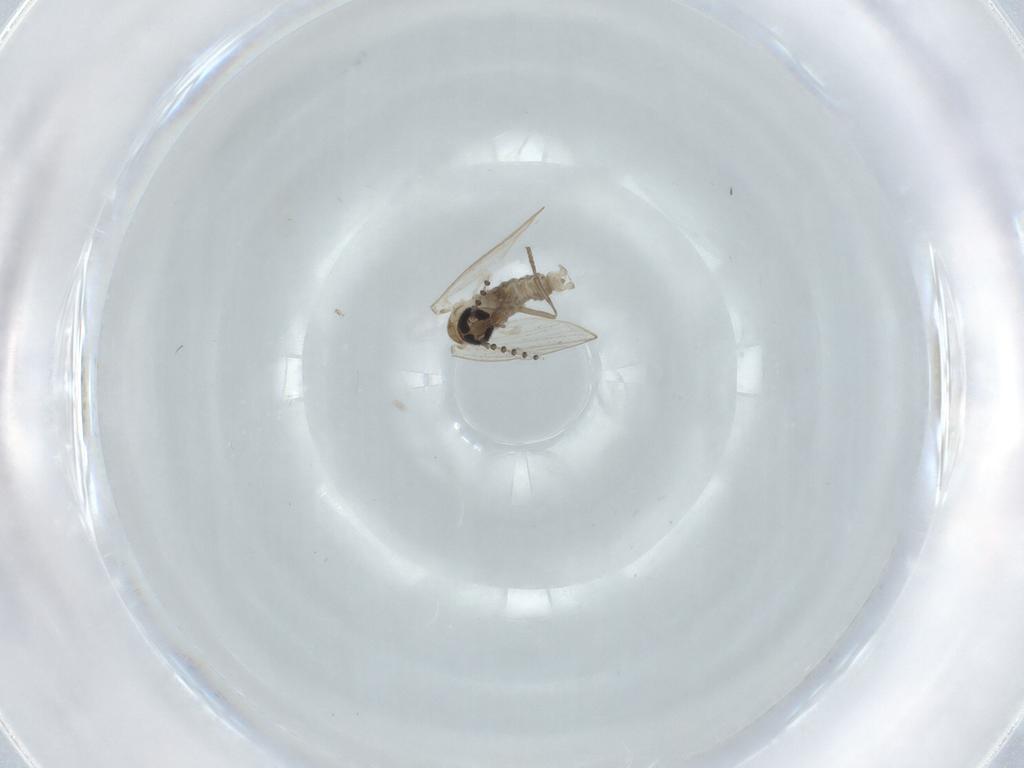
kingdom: Animalia
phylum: Arthropoda
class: Insecta
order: Diptera
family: Psychodidae
